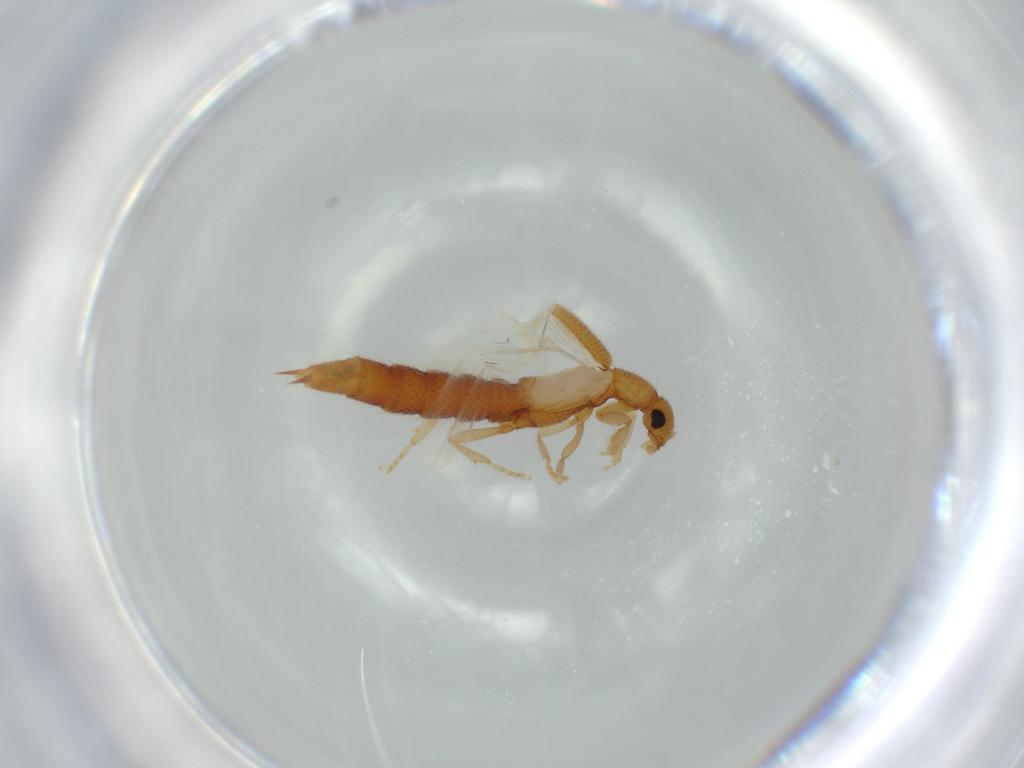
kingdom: Animalia
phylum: Arthropoda
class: Insecta
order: Coleoptera
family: Staphylinidae
